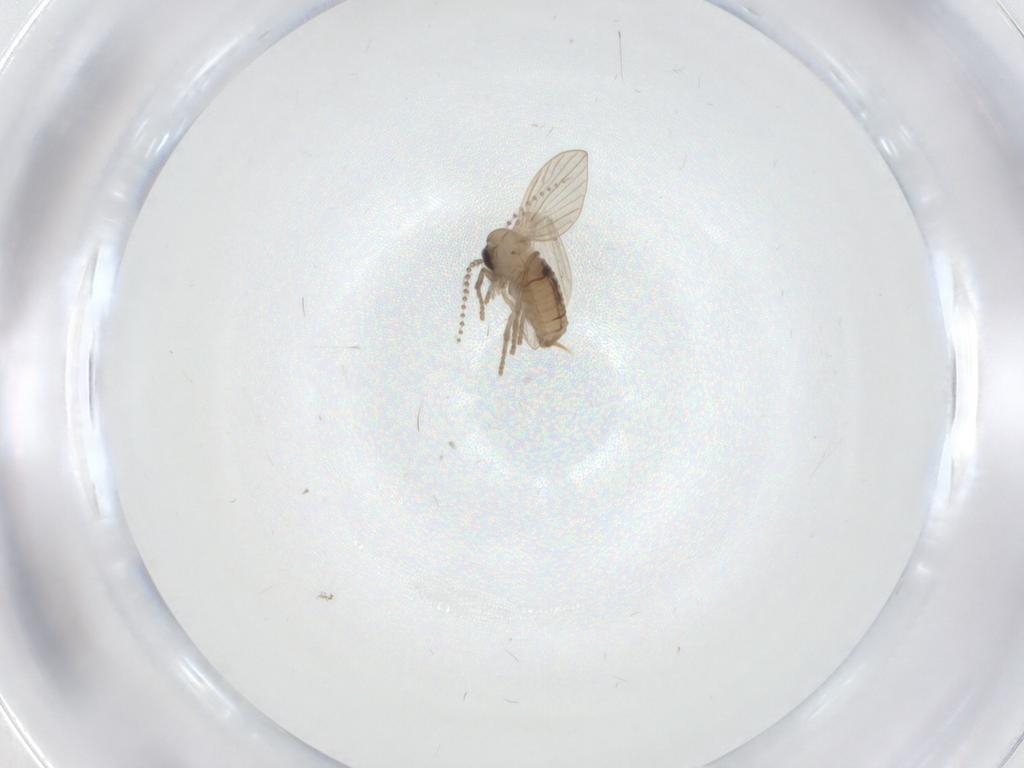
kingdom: Animalia
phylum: Arthropoda
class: Insecta
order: Diptera
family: Psychodidae
